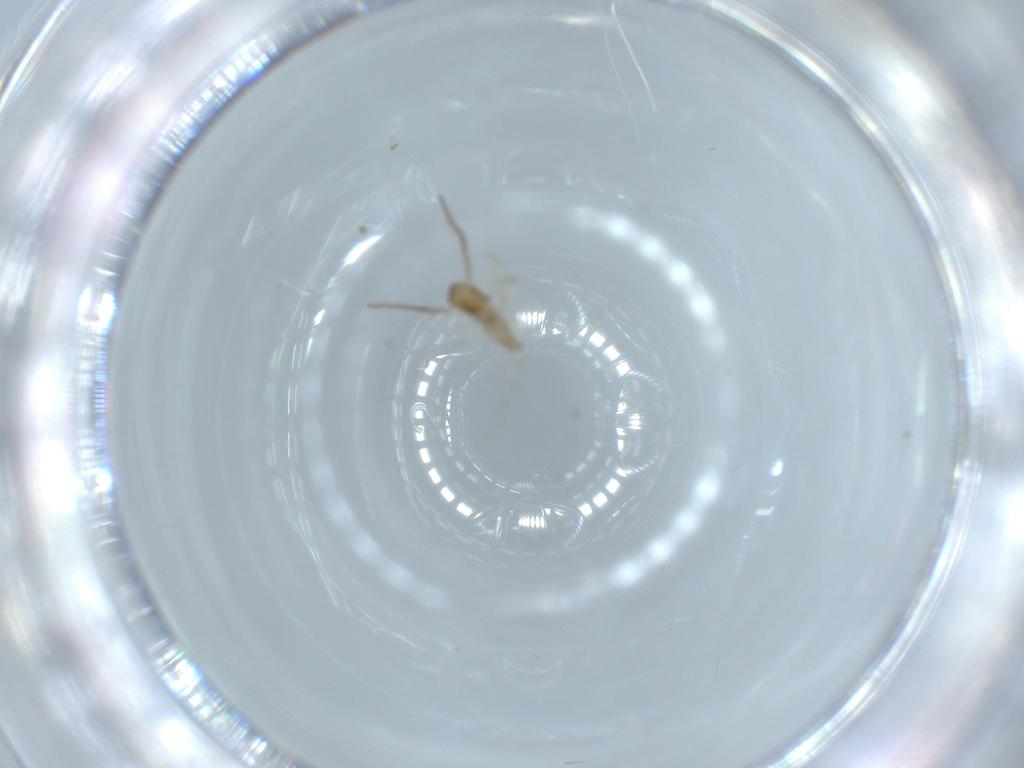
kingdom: Animalia
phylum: Arthropoda
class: Insecta
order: Diptera
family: Cecidomyiidae
